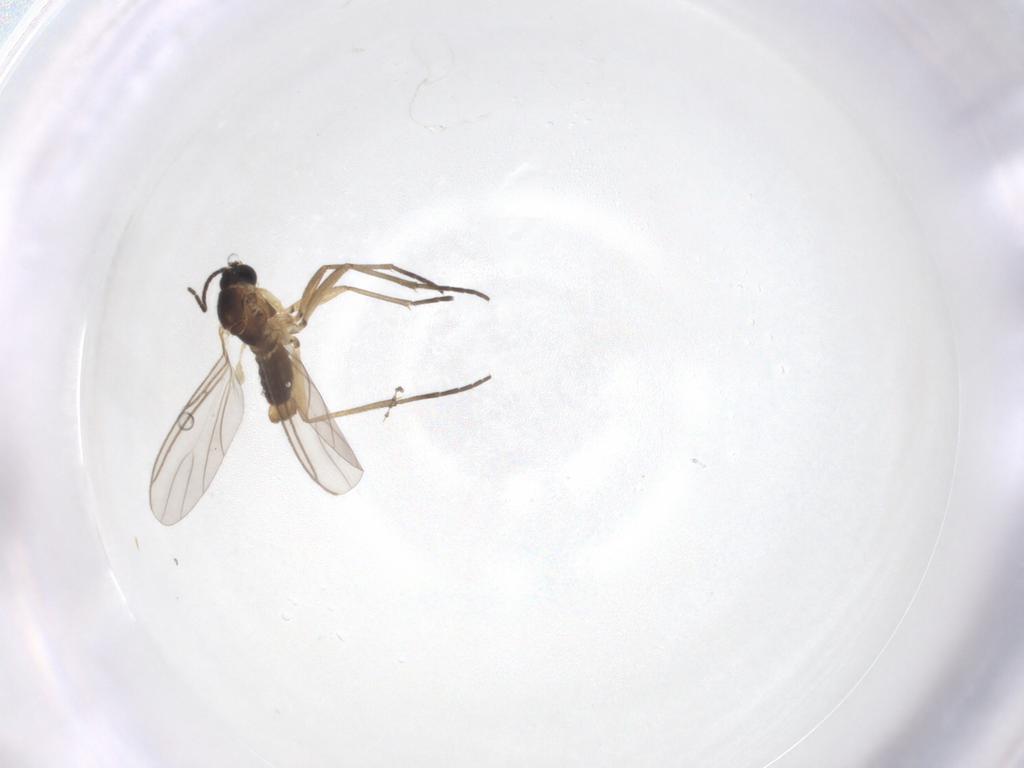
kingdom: Animalia
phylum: Arthropoda
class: Insecta
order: Diptera
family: Cecidomyiidae
